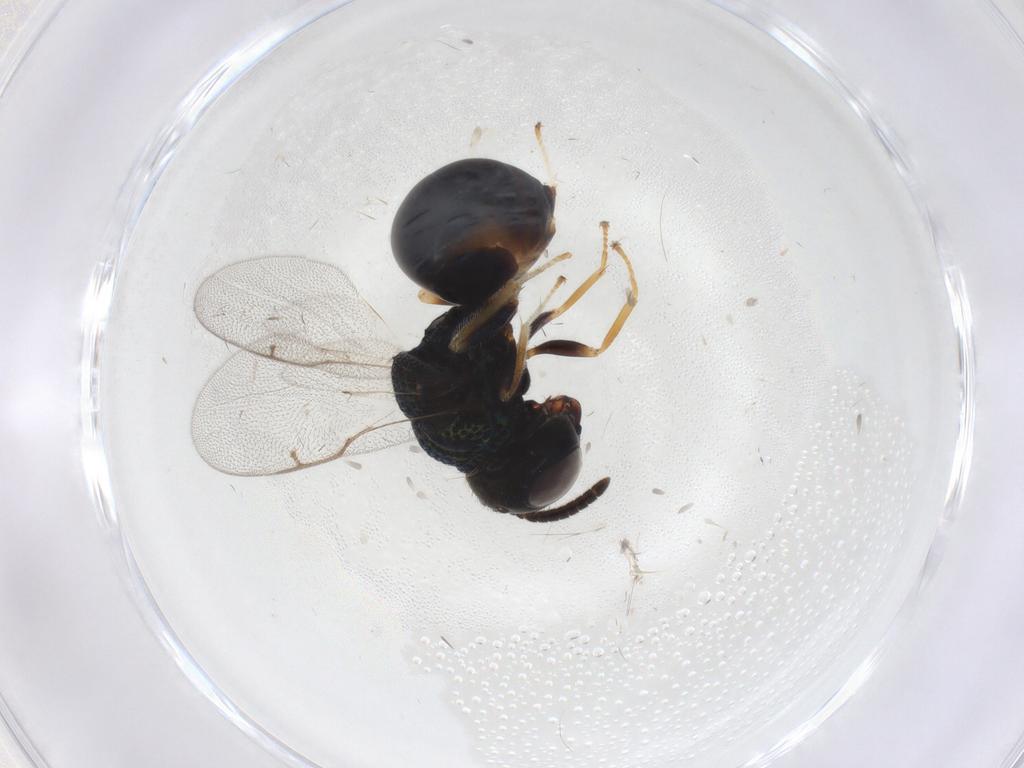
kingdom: Animalia
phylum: Arthropoda
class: Insecta
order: Hymenoptera
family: Perilampidae
